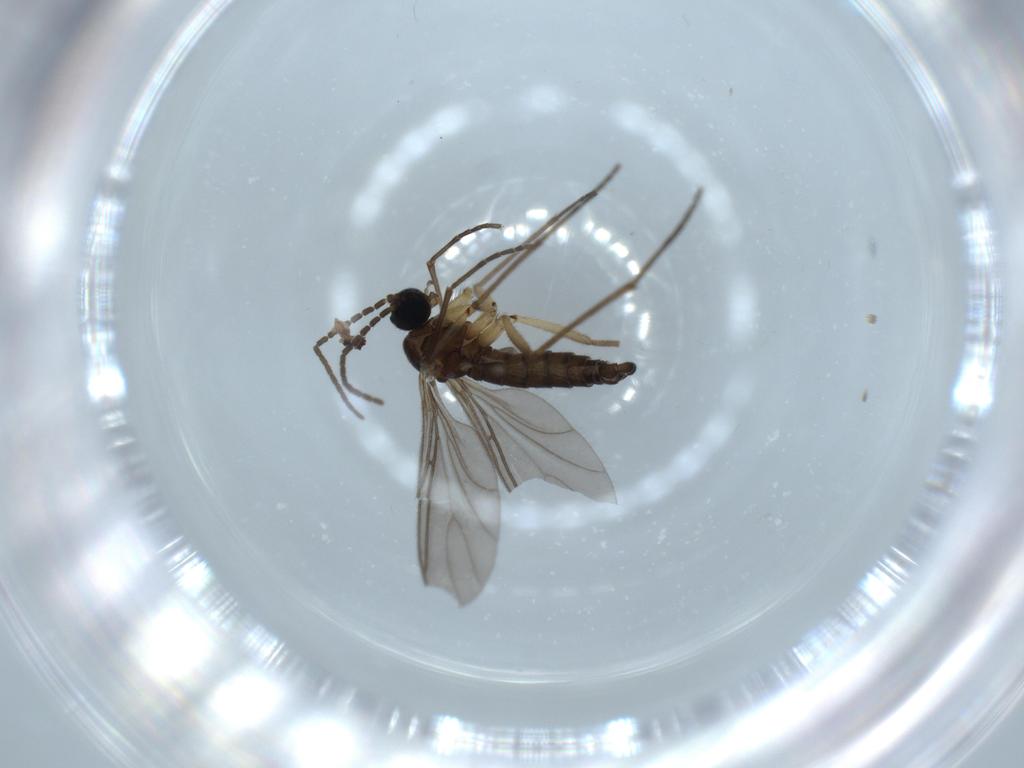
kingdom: Animalia
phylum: Arthropoda
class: Insecta
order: Diptera
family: Sciaridae
